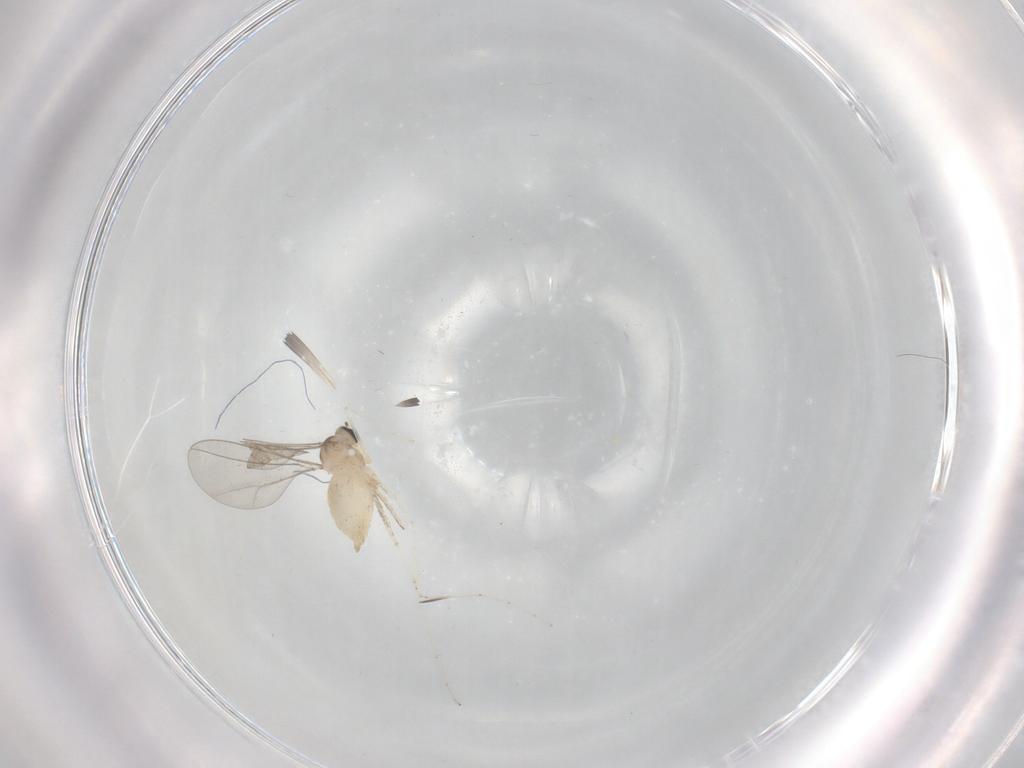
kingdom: Animalia
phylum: Arthropoda
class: Insecta
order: Diptera
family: Cecidomyiidae
